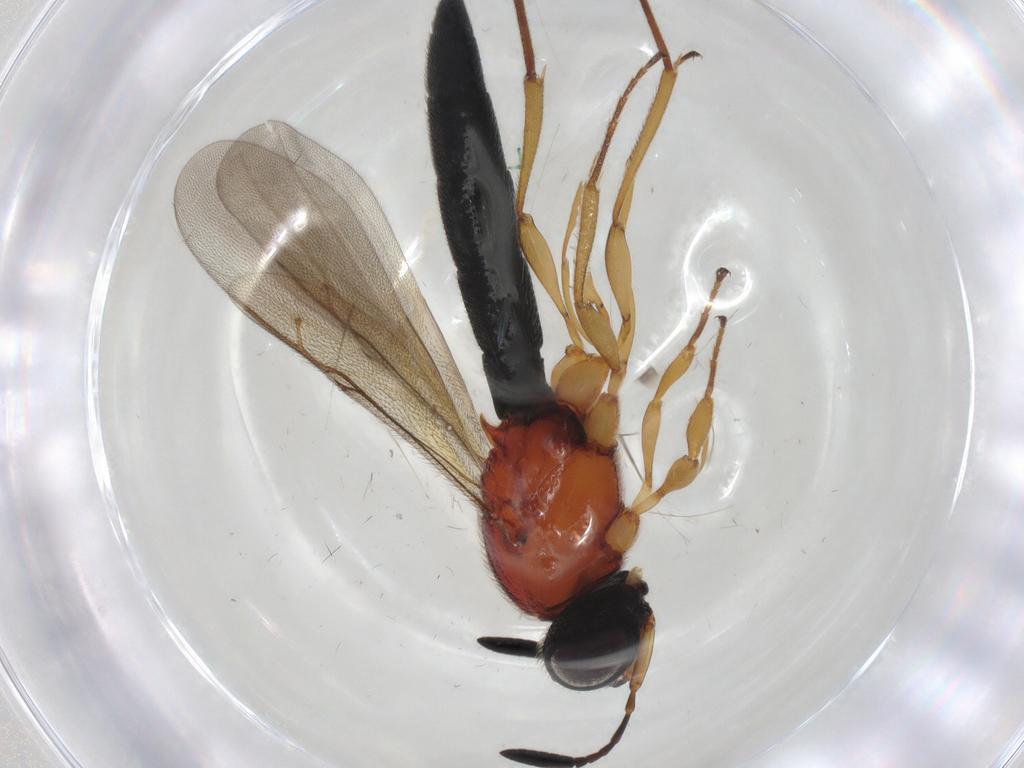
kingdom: Animalia
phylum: Arthropoda
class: Insecta
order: Hymenoptera
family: Scelionidae
